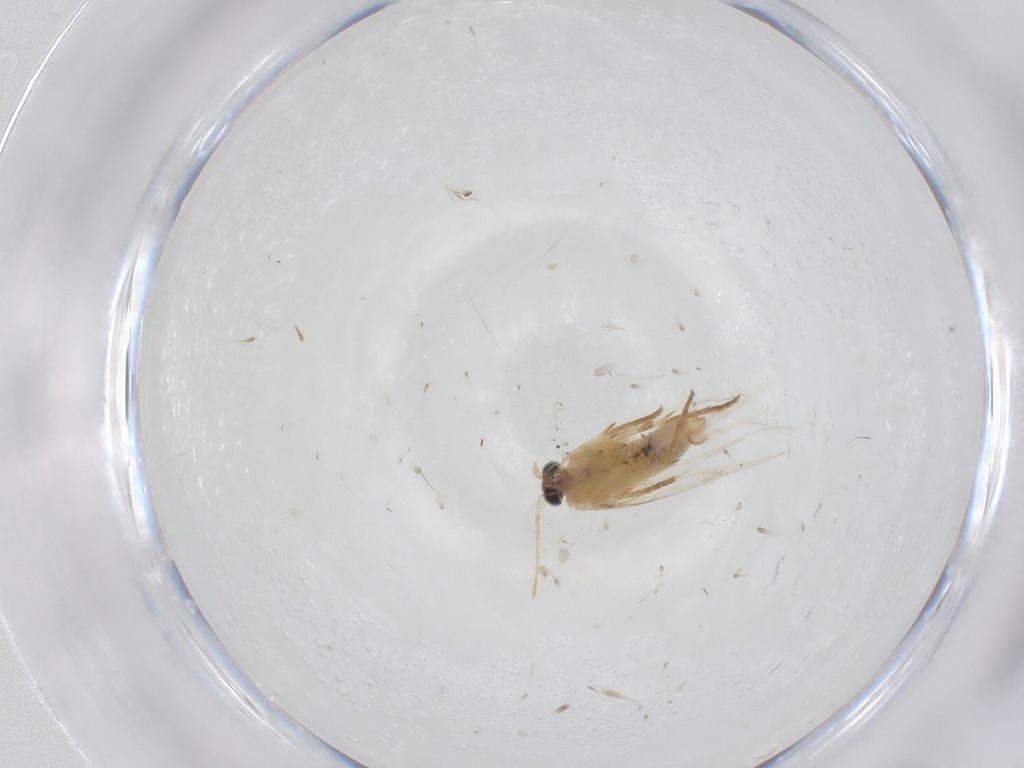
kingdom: Animalia
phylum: Arthropoda
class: Insecta
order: Lepidoptera
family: Nepticulidae
